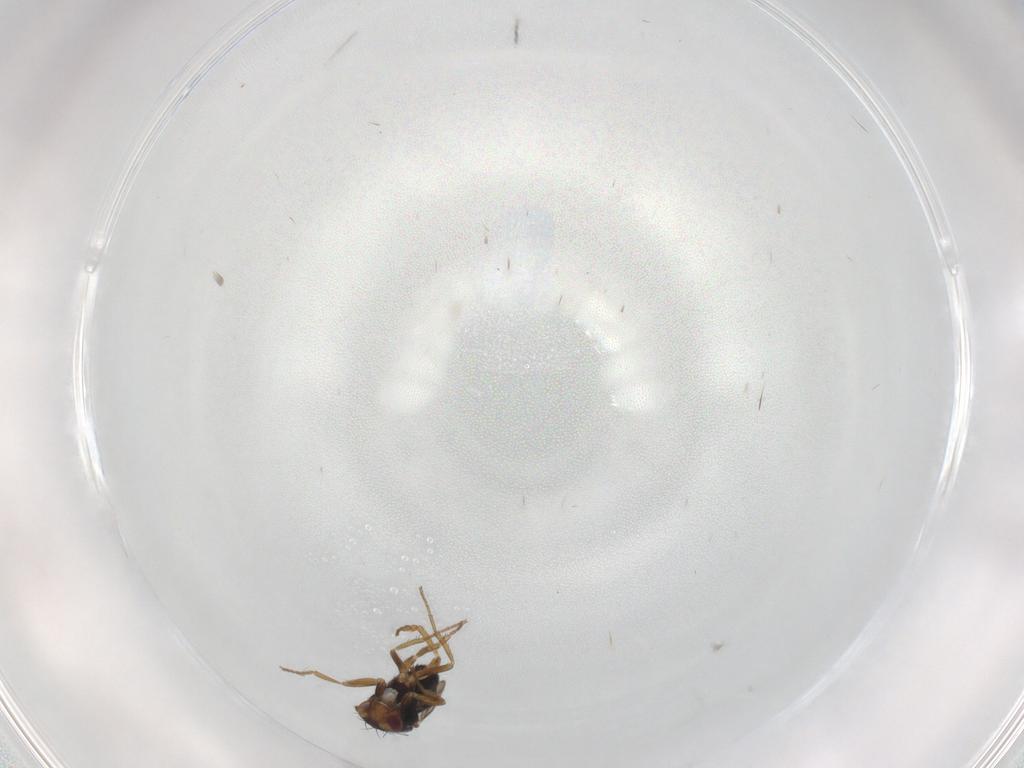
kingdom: Animalia
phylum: Arthropoda
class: Insecta
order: Diptera
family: Sphaeroceridae
